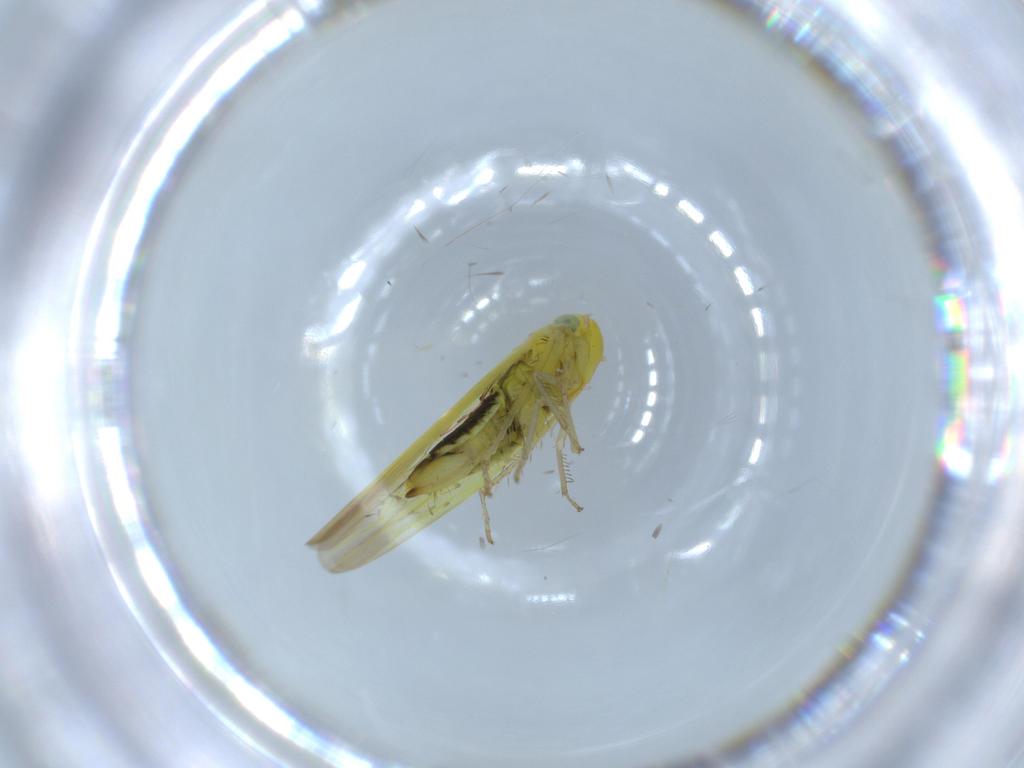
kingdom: Animalia
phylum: Arthropoda
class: Insecta
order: Hemiptera
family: Cicadellidae
